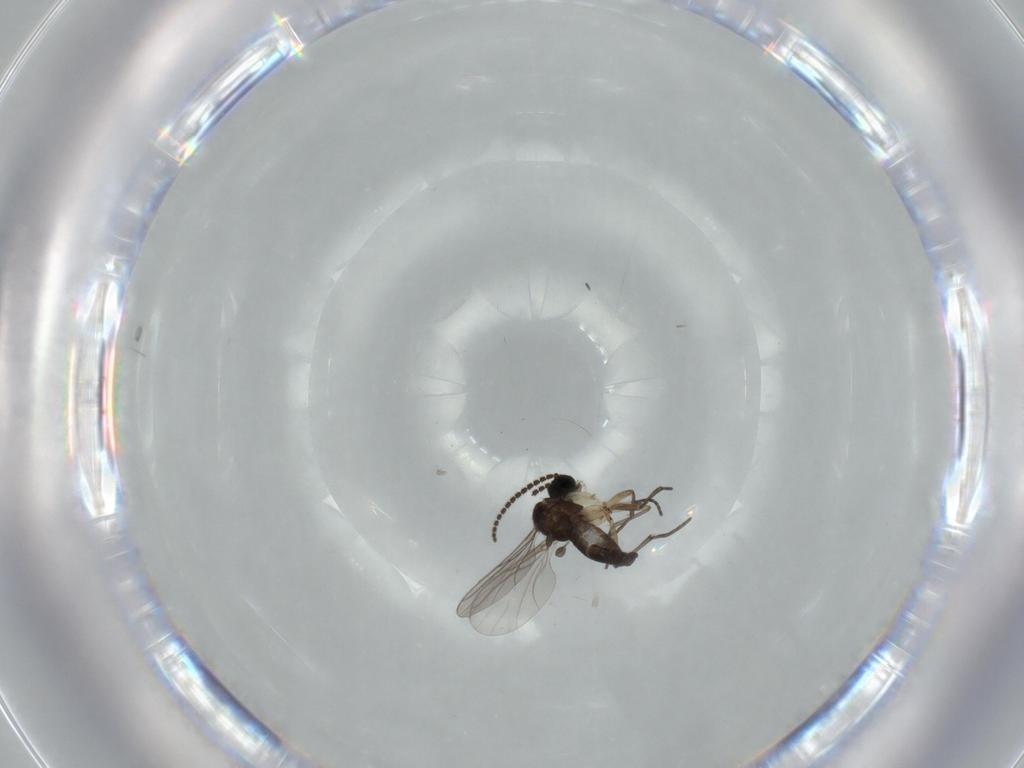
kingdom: Animalia
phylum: Arthropoda
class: Insecta
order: Diptera
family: Sciaridae
